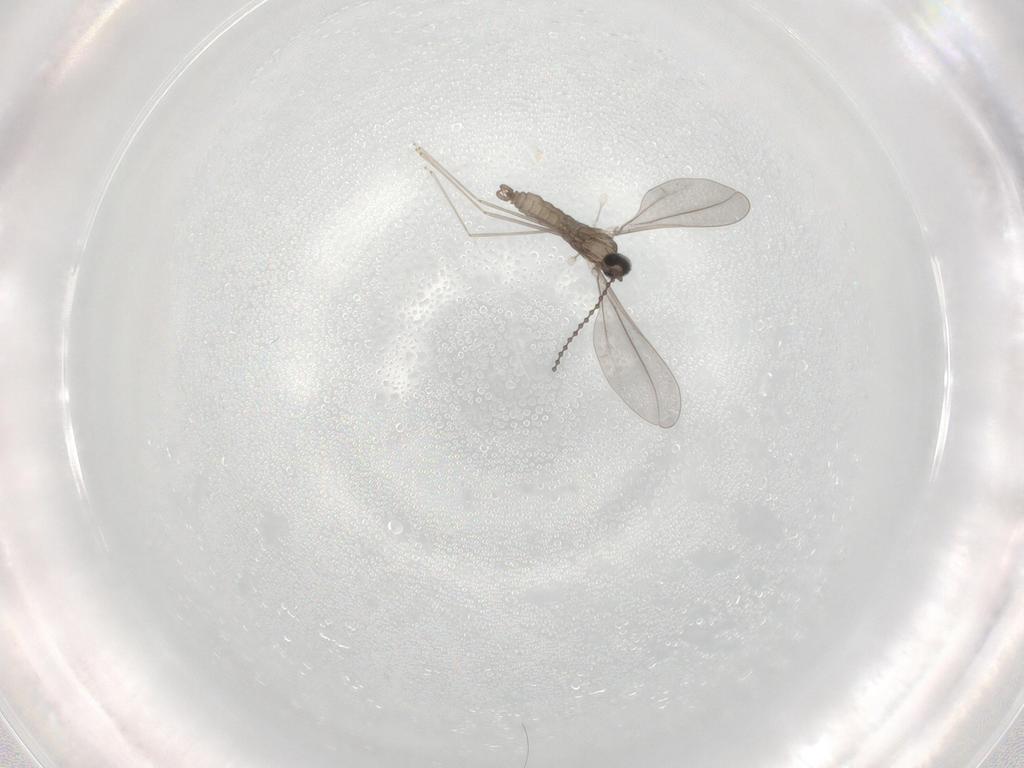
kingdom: Animalia
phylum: Arthropoda
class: Insecta
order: Diptera
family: Cecidomyiidae
